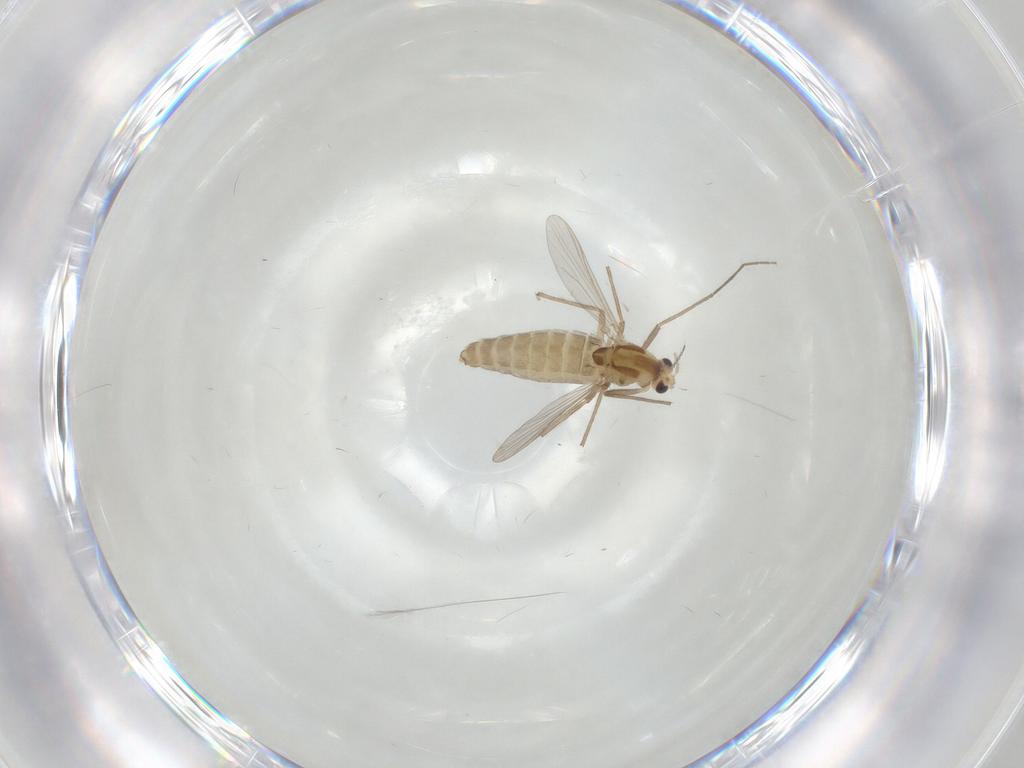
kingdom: Animalia
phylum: Arthropoda
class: Insecta
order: Diptera
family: Chironomidae
